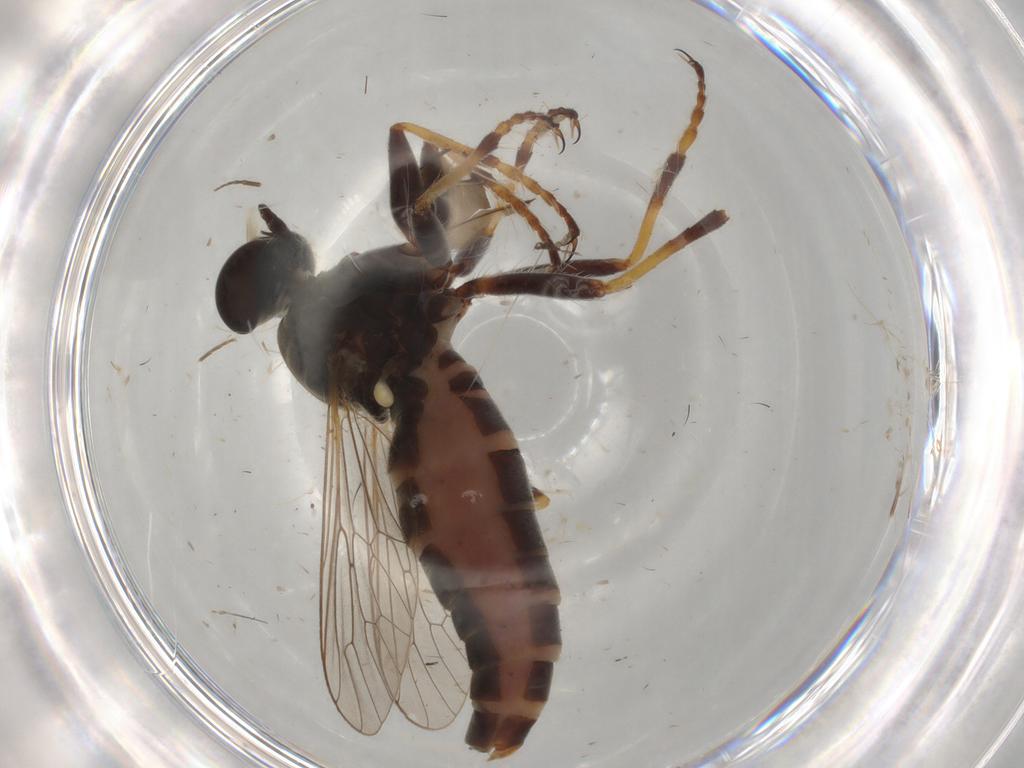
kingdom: Animalia
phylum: Arthropoda
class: Insecta
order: Diptera
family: Asilidae
